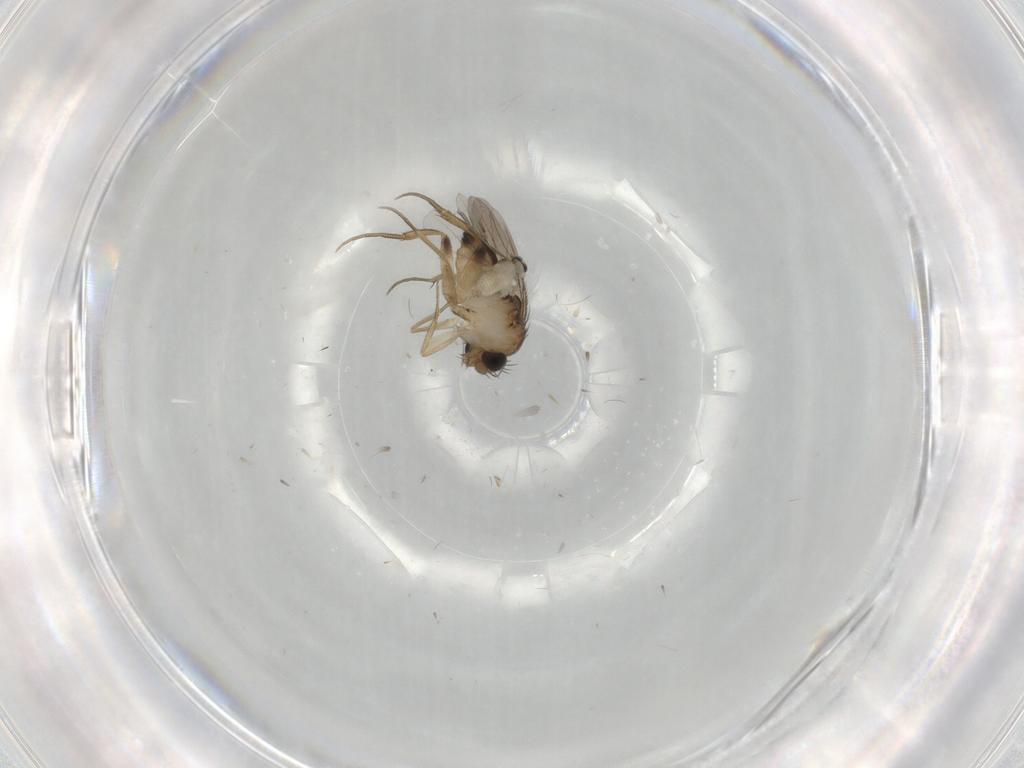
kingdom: Animalia
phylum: Arthropoda
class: Insecta
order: Diptera
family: Cecidomyiidae
